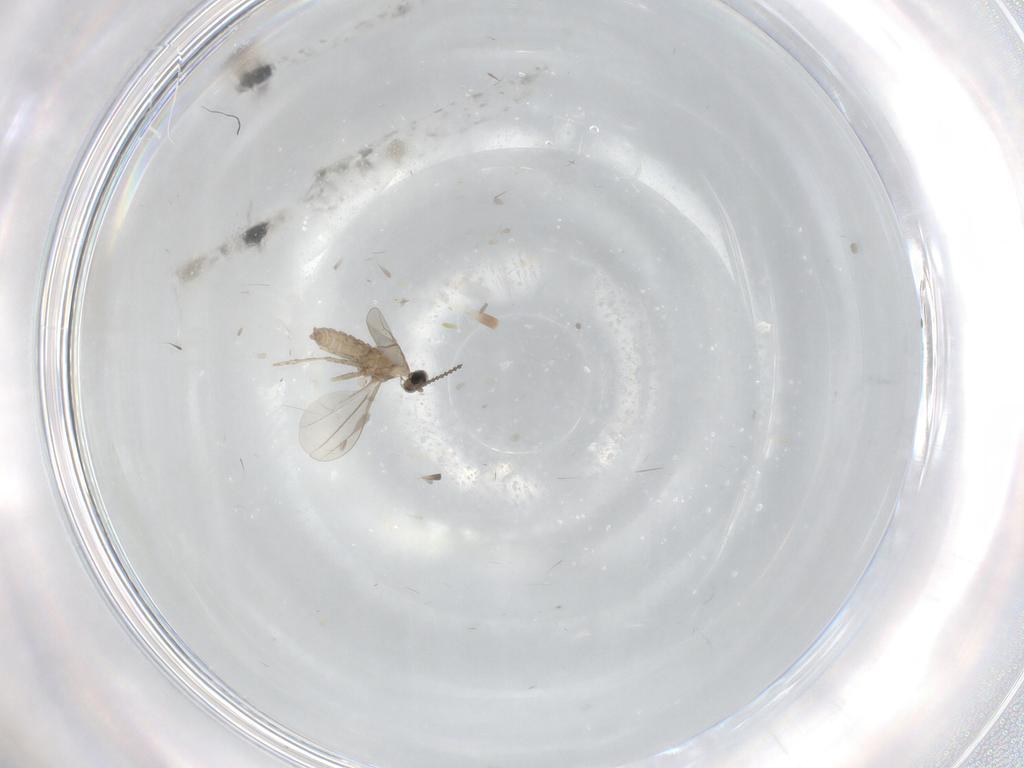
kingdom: Animalia
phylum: Arthropoda
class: Insecta
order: Diptera
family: Cecidomyiidae
